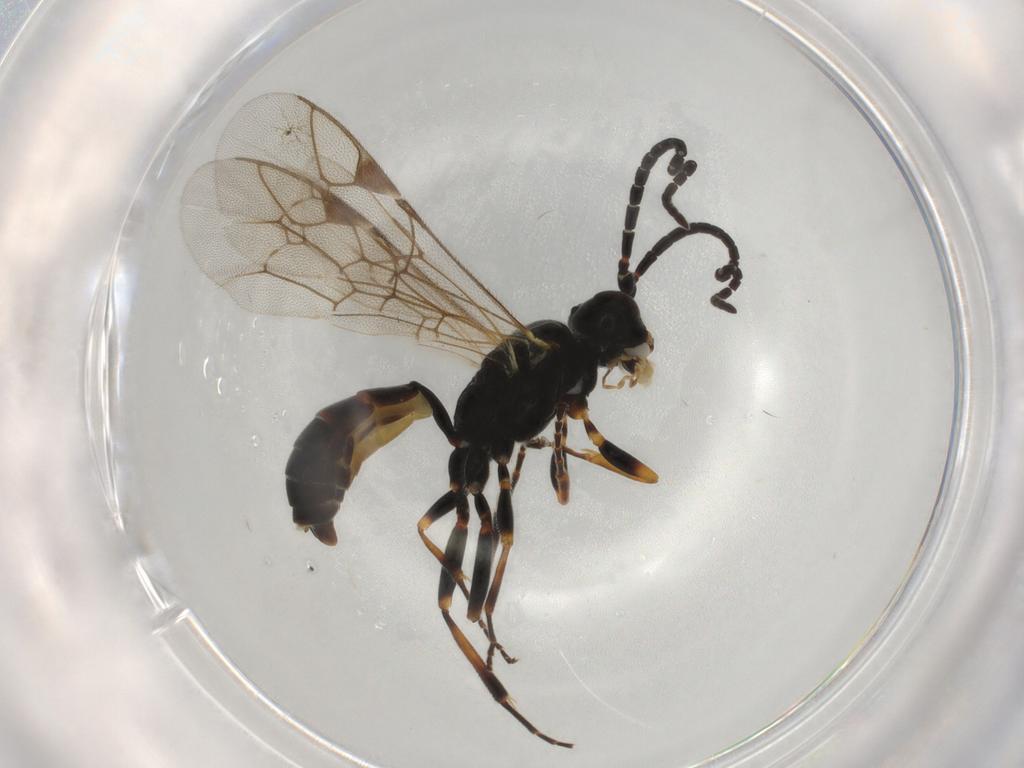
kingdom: Animalia
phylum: Arthropoda
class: Insecta
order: Hymenoptera
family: Ichneumonidae
